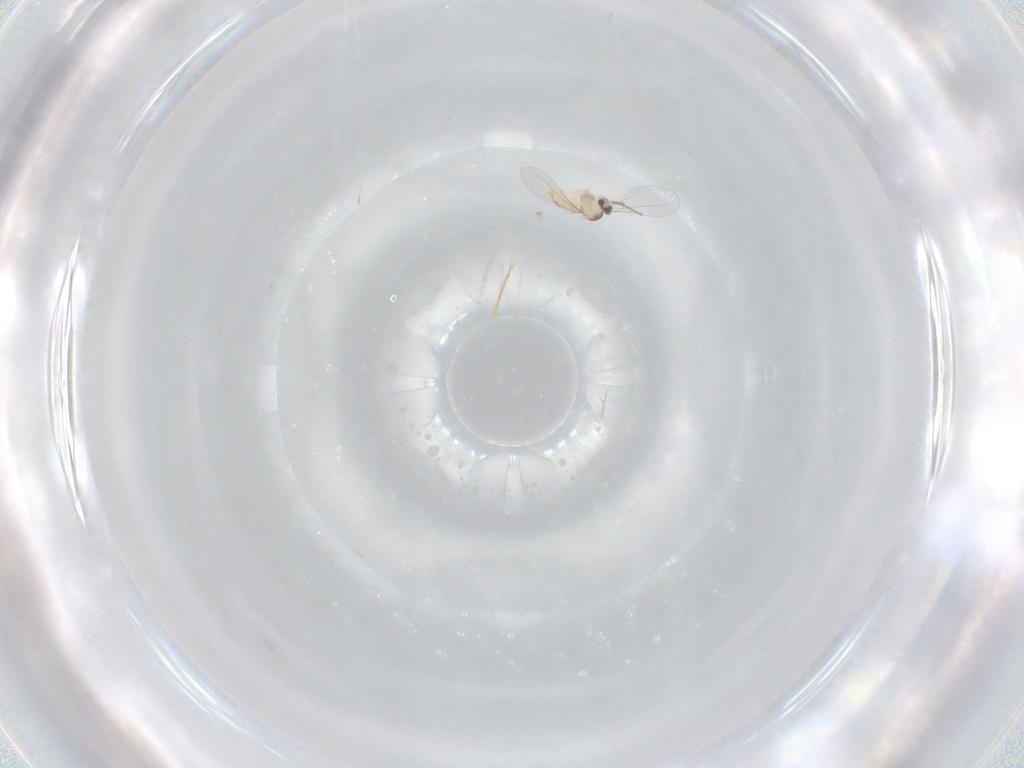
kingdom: Animalia
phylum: Arthropoda
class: Insecta
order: Diptera
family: Cecidomyiidae
